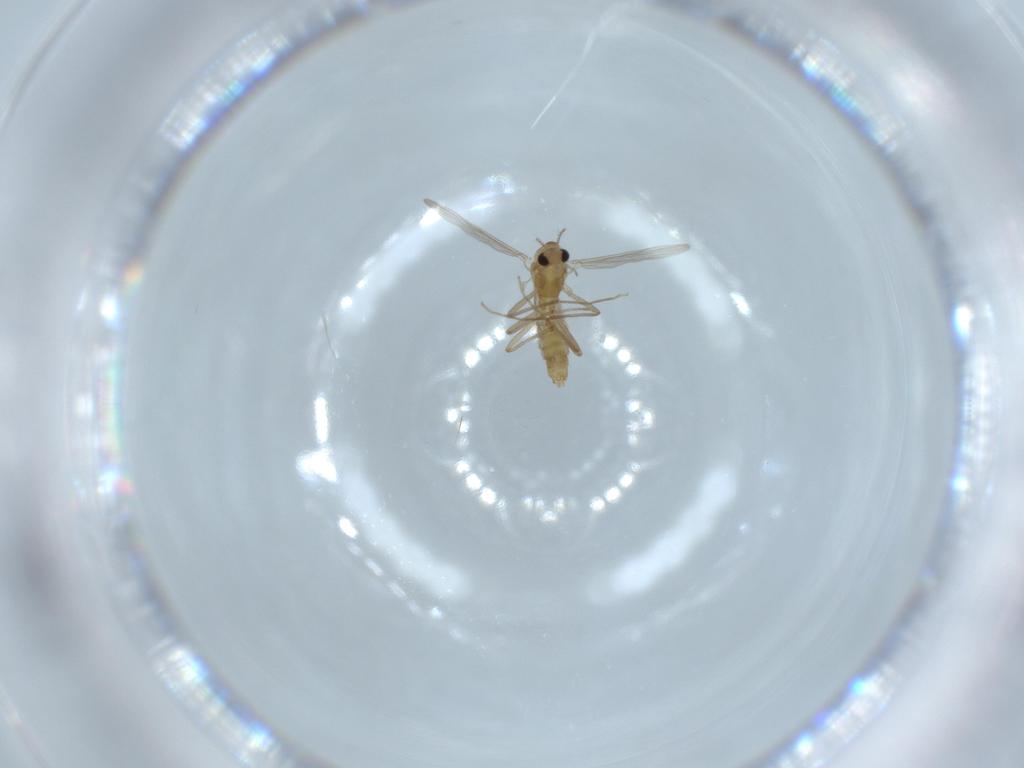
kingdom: Animalia
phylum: Arthropoda
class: Insecta
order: Diptera
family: Chironomidae
